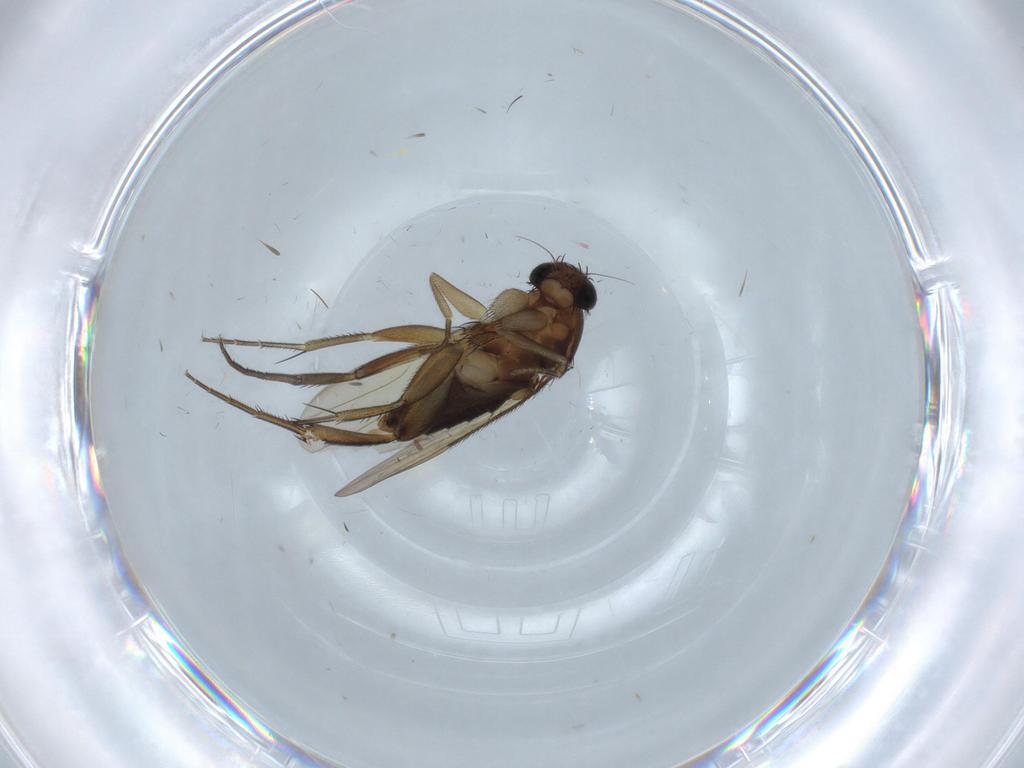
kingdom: Animalia
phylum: Arthropoda
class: Insecta
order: Diptera
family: Phoridae
